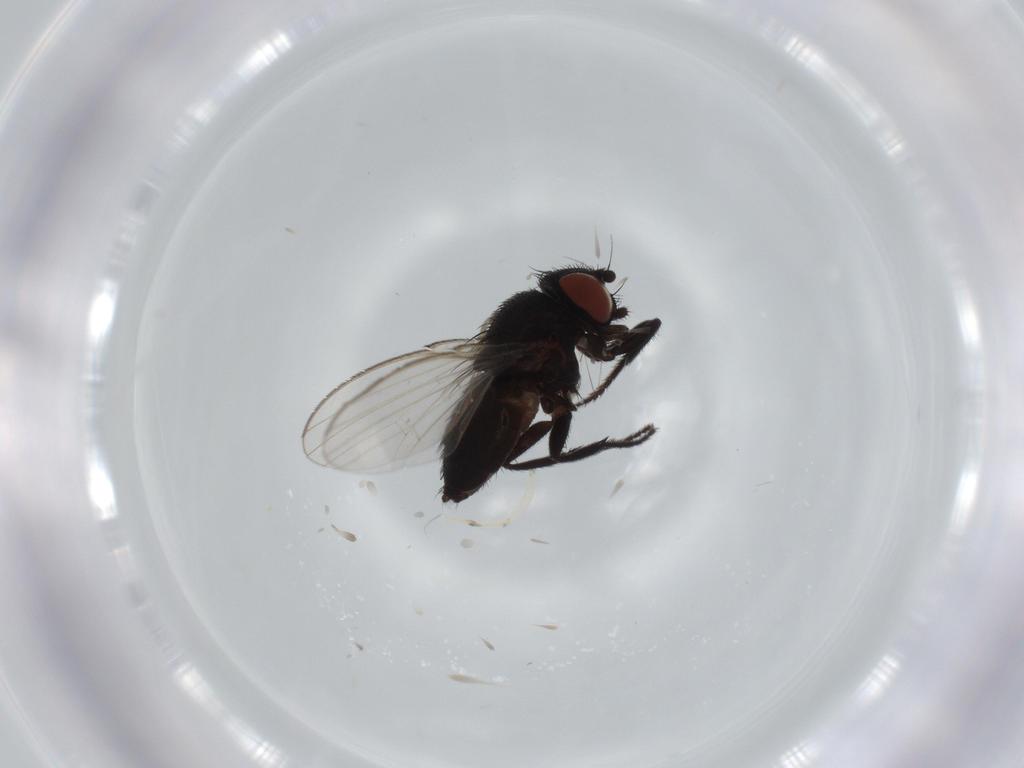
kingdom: Animalia
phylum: Arthropoda
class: Insecta
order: Diptera
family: Phoridae
